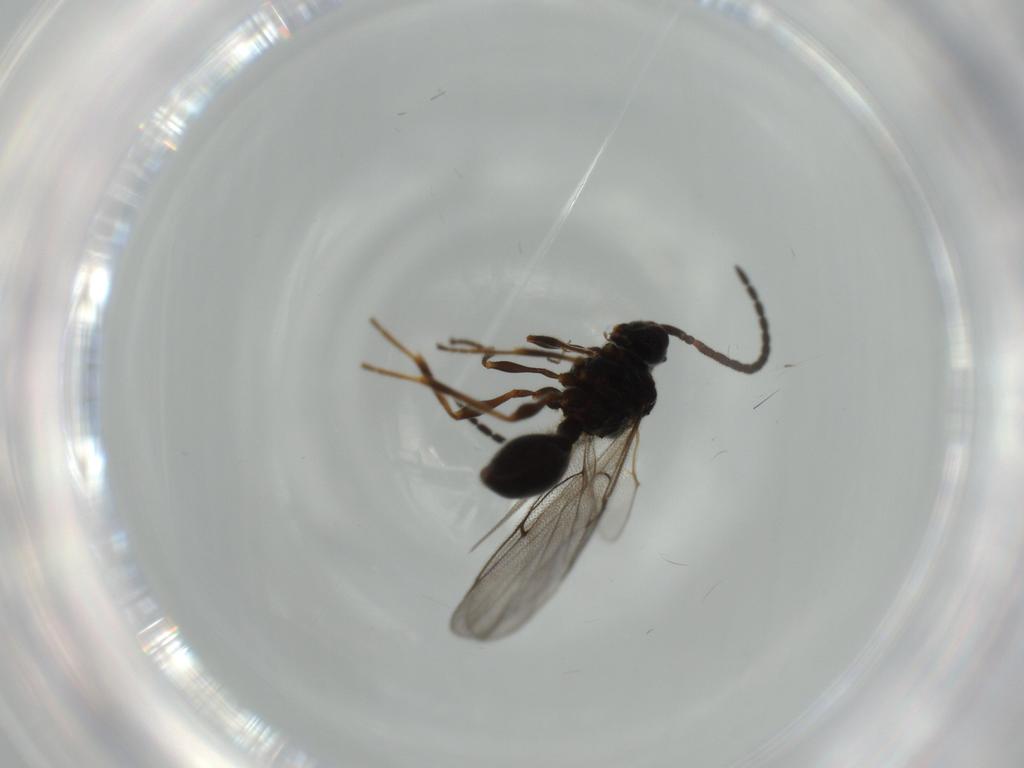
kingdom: Animalia
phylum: Arthropoda
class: Insecta
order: Hymenoptera
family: Diapriidae
